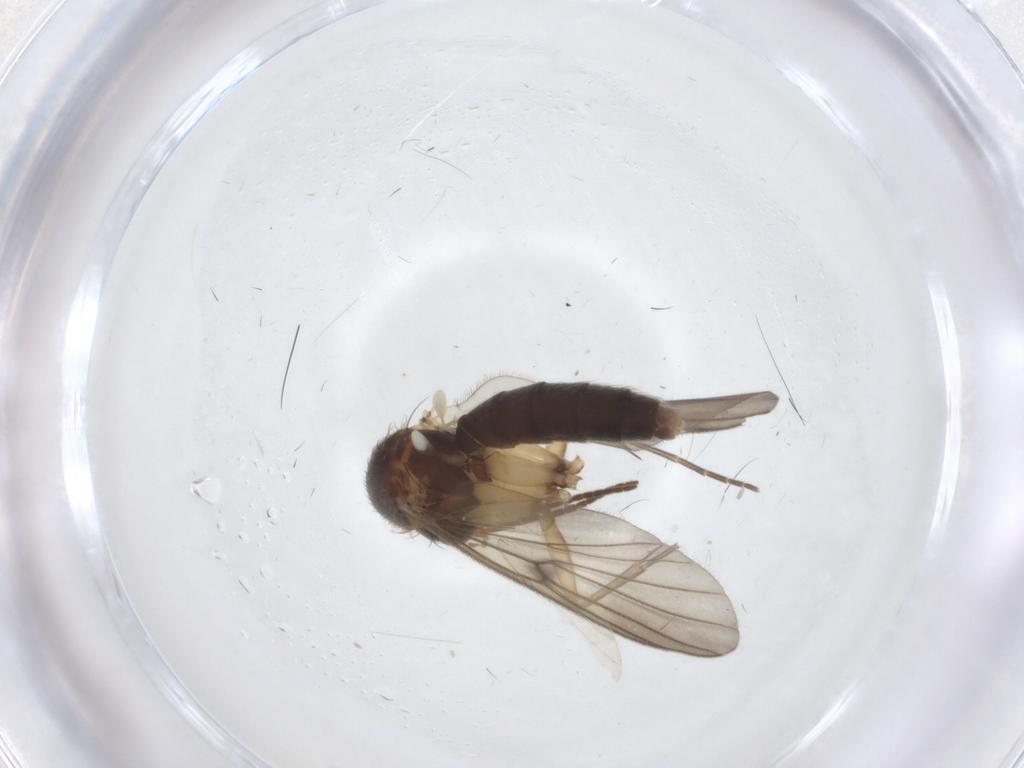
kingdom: Animalia
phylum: Arthropoda
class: Insecta
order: Diptera
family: Mycetophilidae
